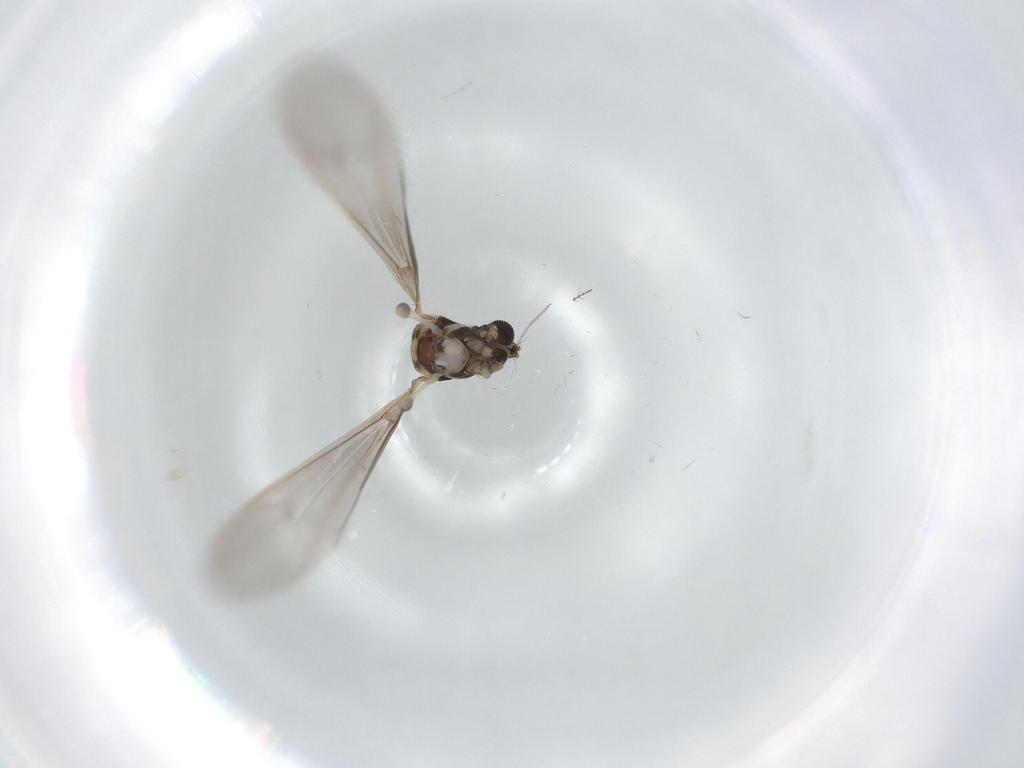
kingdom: Animalia
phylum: Arthropoda
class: Insecta
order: Diptera
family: Limoniidae
